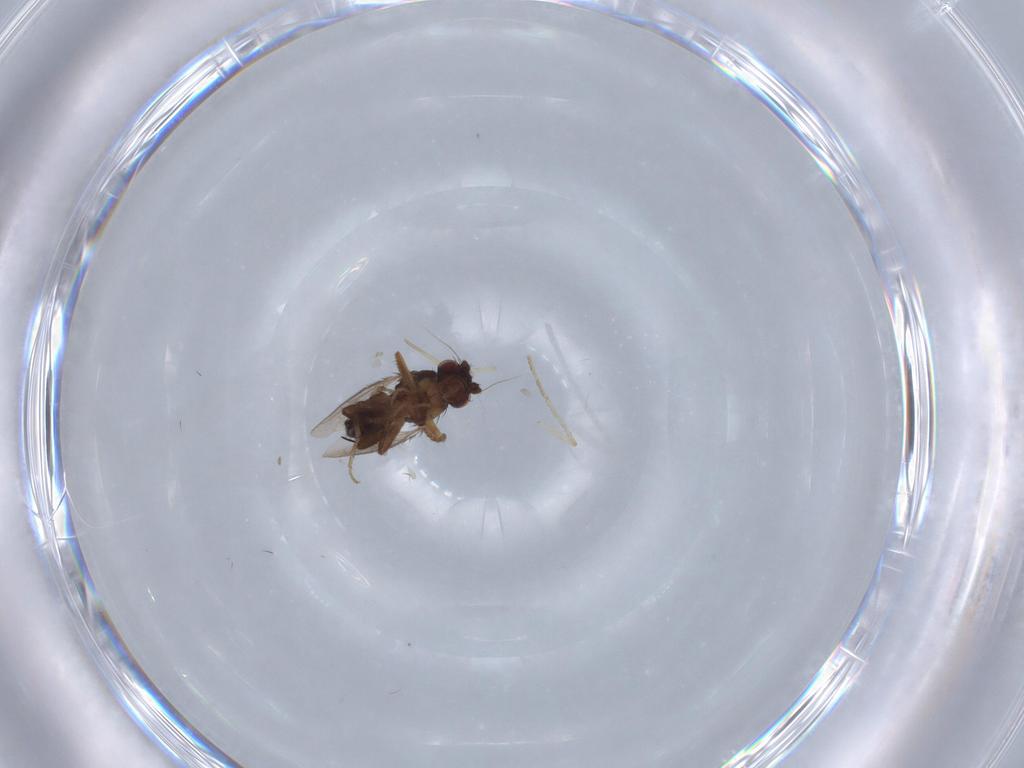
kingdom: Animalia
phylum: Arthropoda
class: Insecta
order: Diptera
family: Sphaeroceridae
